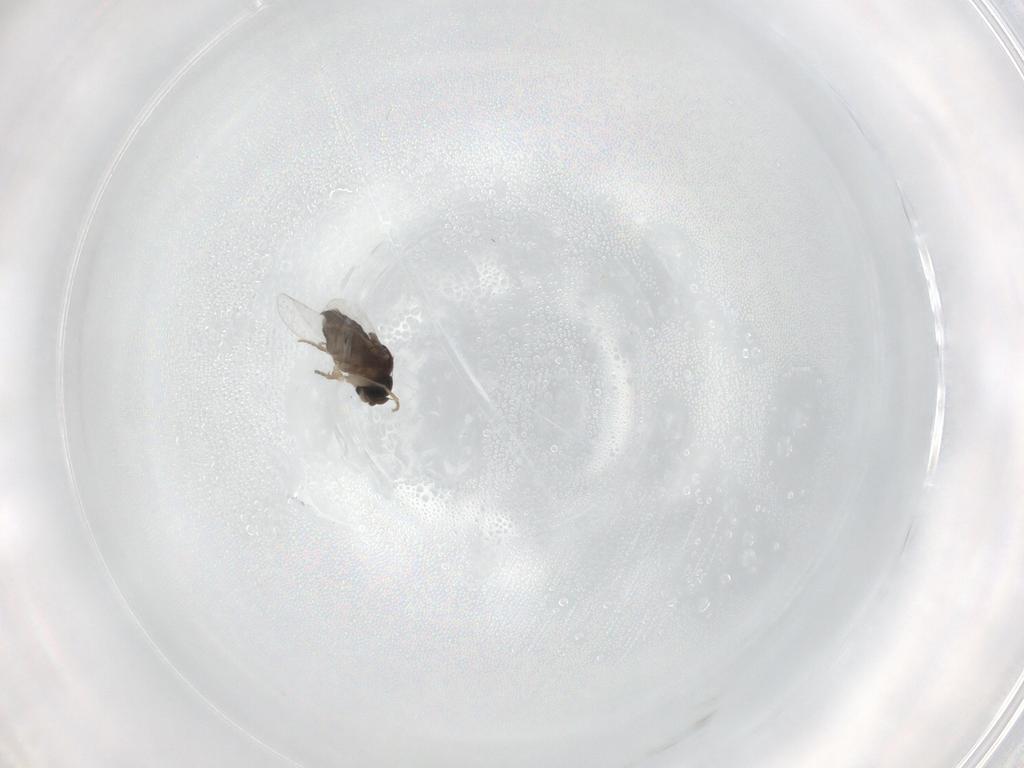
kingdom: Animalia
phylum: Arthropoda
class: Insecta
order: Diptera
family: Phoridae
